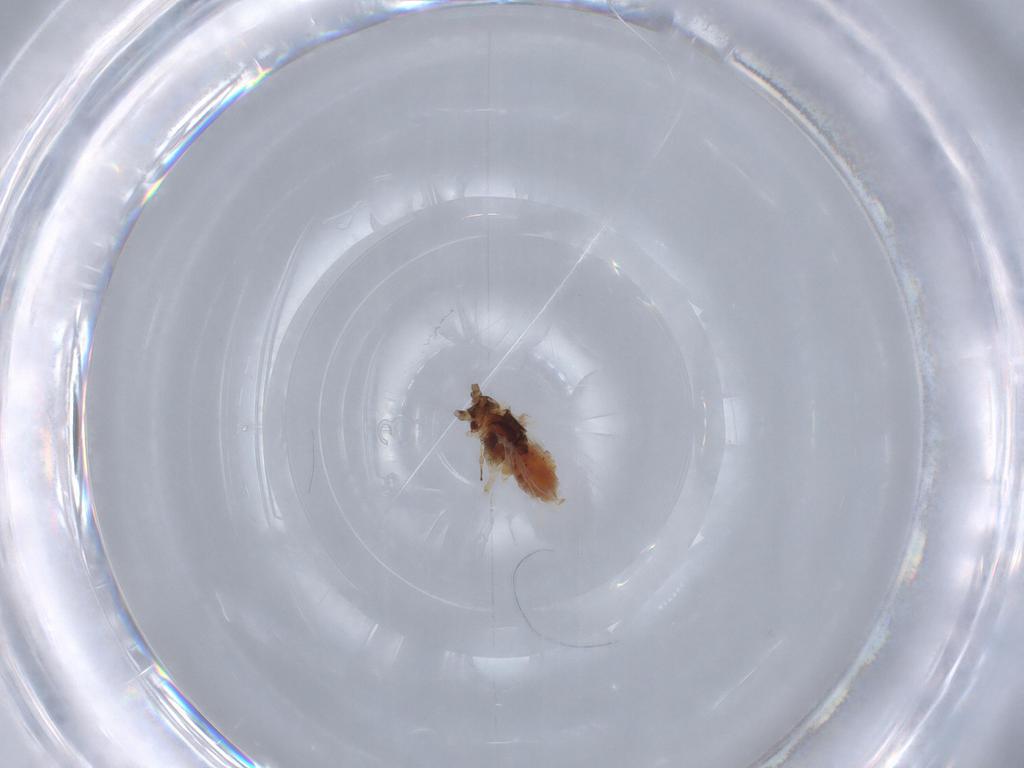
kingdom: Animalia
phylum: Arthropoda
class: Insecta
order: Hemiptera
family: Aphididae
